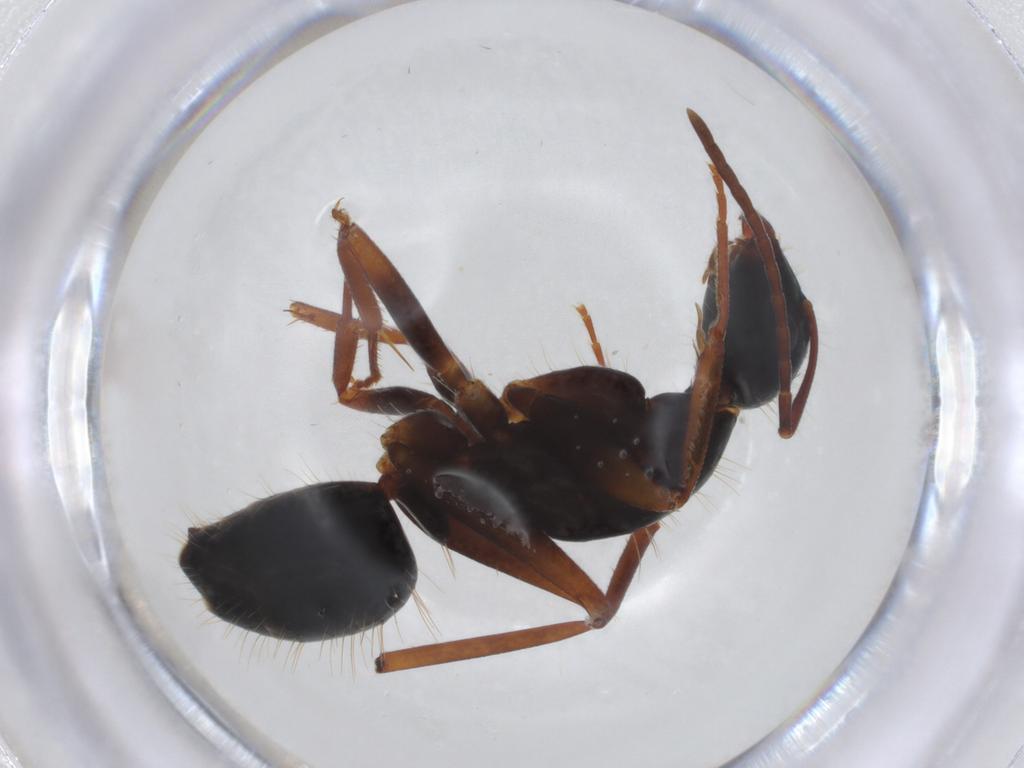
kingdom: Animalia
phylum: Arthropoda
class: Insecta
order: Hymenoptera
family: Formicidae
